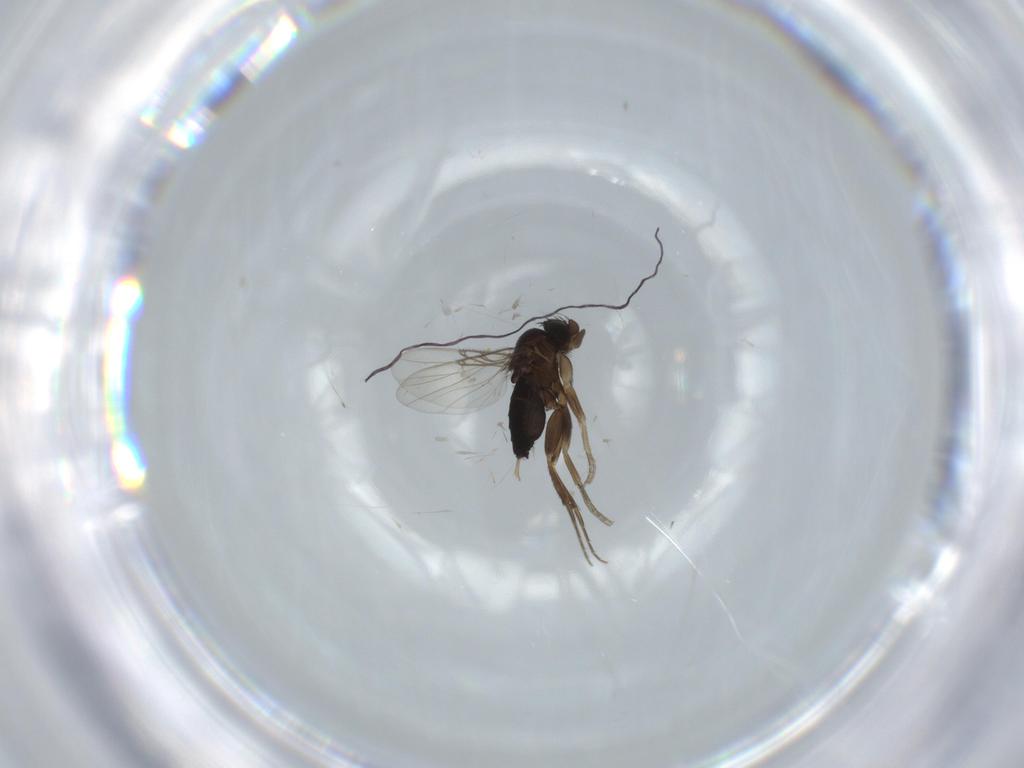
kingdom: Animalia
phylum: Arthropoda
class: Insecta
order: Diptera
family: Phoridae
